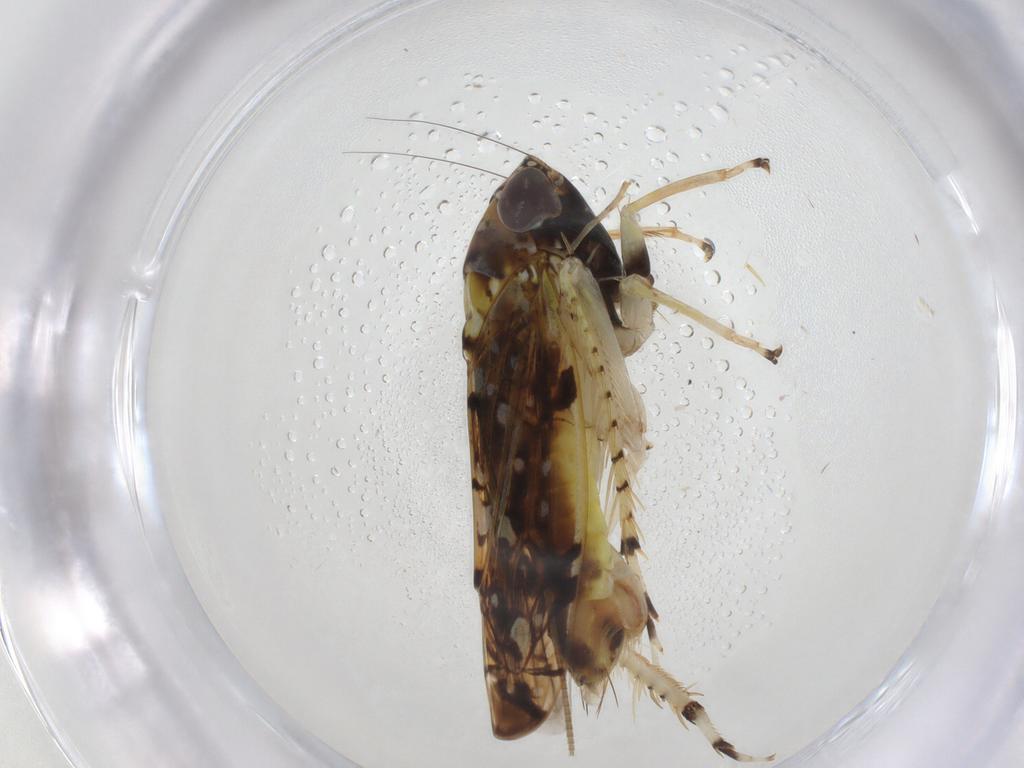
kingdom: Animalia
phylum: Arthropoda
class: Insecta
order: Hemiptera
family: Cicadellidae
